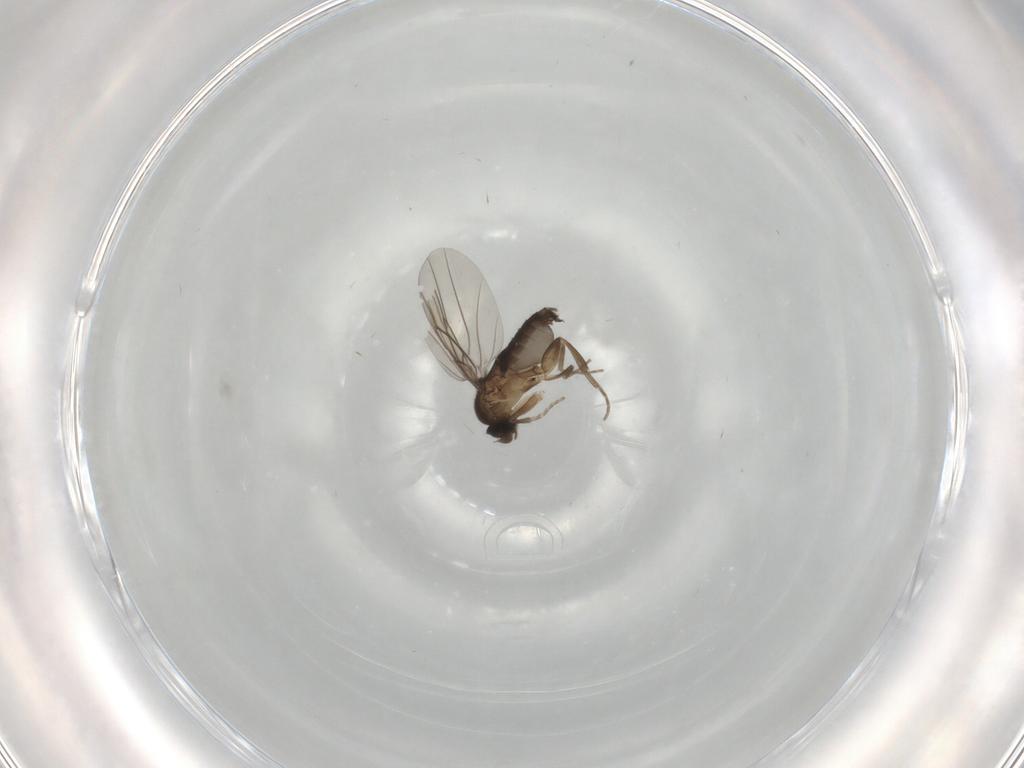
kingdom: Animalia
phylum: Arthropoda
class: Insecta
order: Diptera
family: Phoridae
